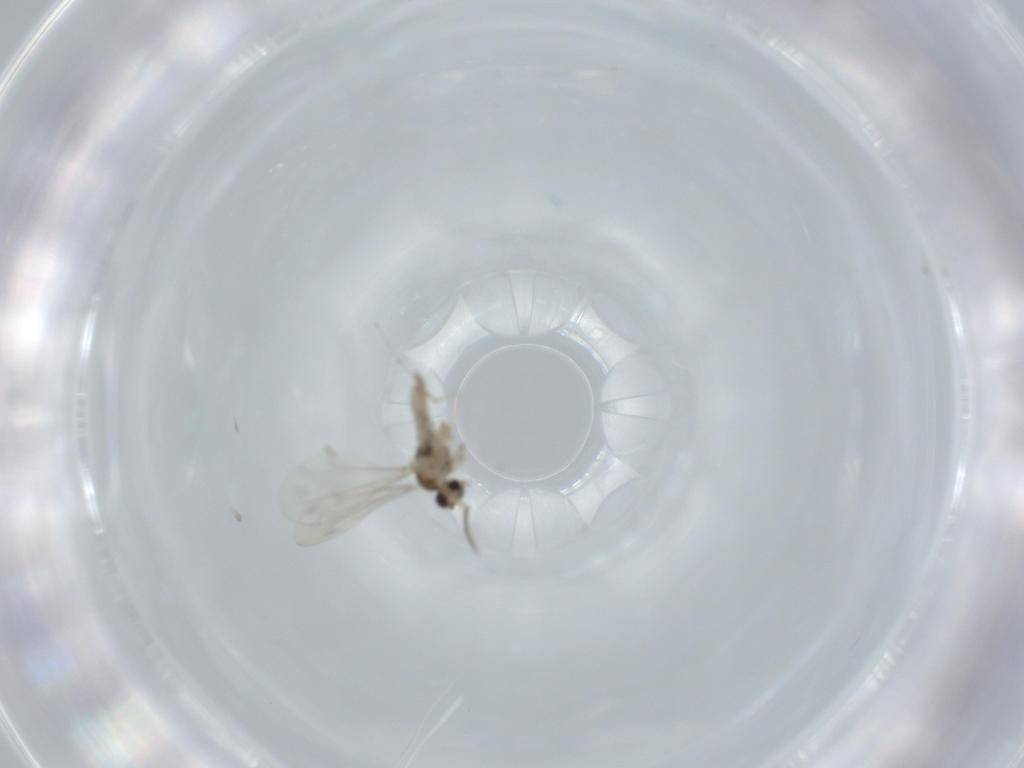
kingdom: Animalia
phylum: Arthropoda
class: Insecta
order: Diptera
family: Cecidomyiidae
